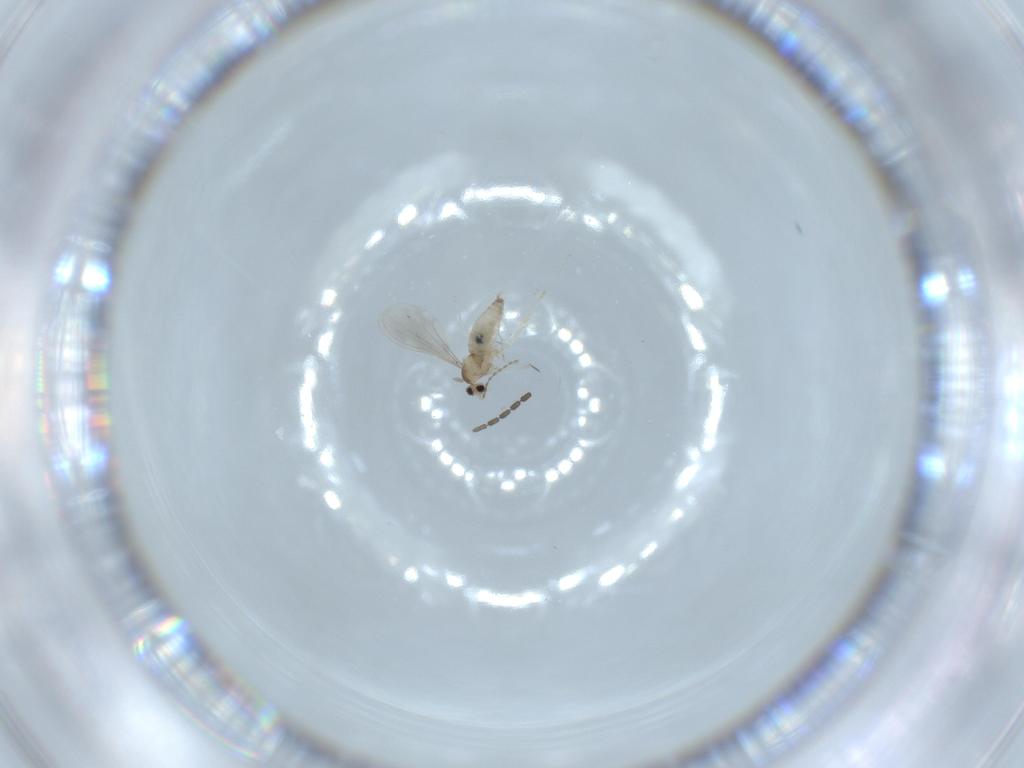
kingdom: Animalia
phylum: Arthropoda
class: Insecta
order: Diptera
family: Cecidomyiidae
